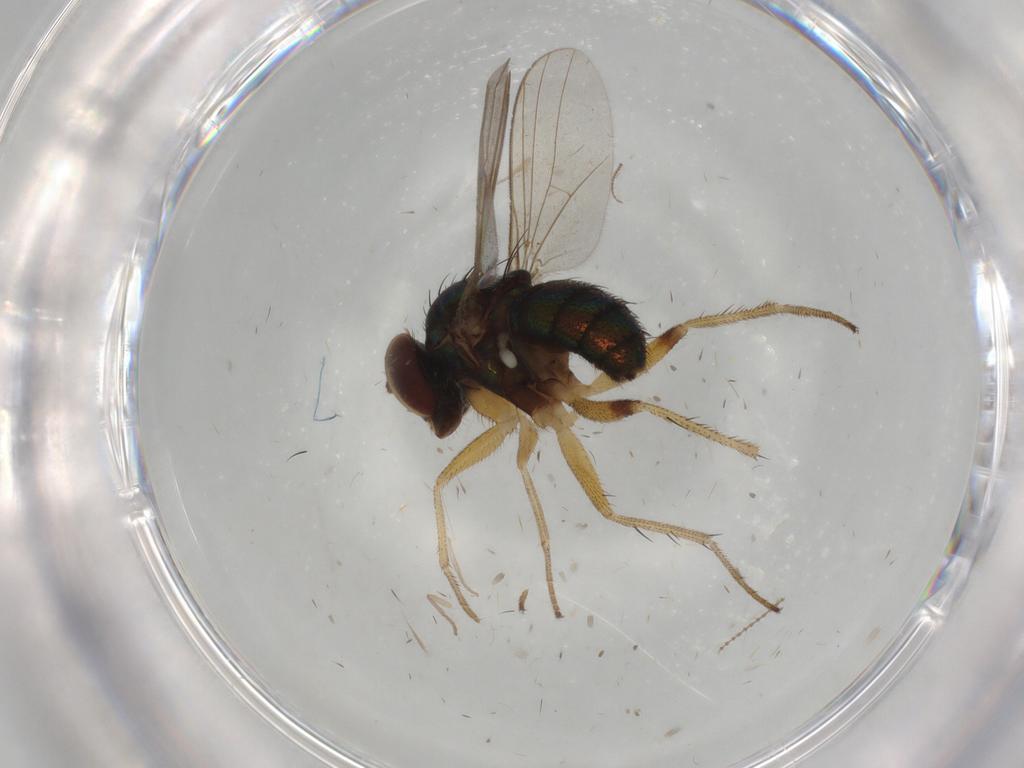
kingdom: Animalia
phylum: Arthropoda
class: Insecta
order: Diptera
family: Dolichopodidae
